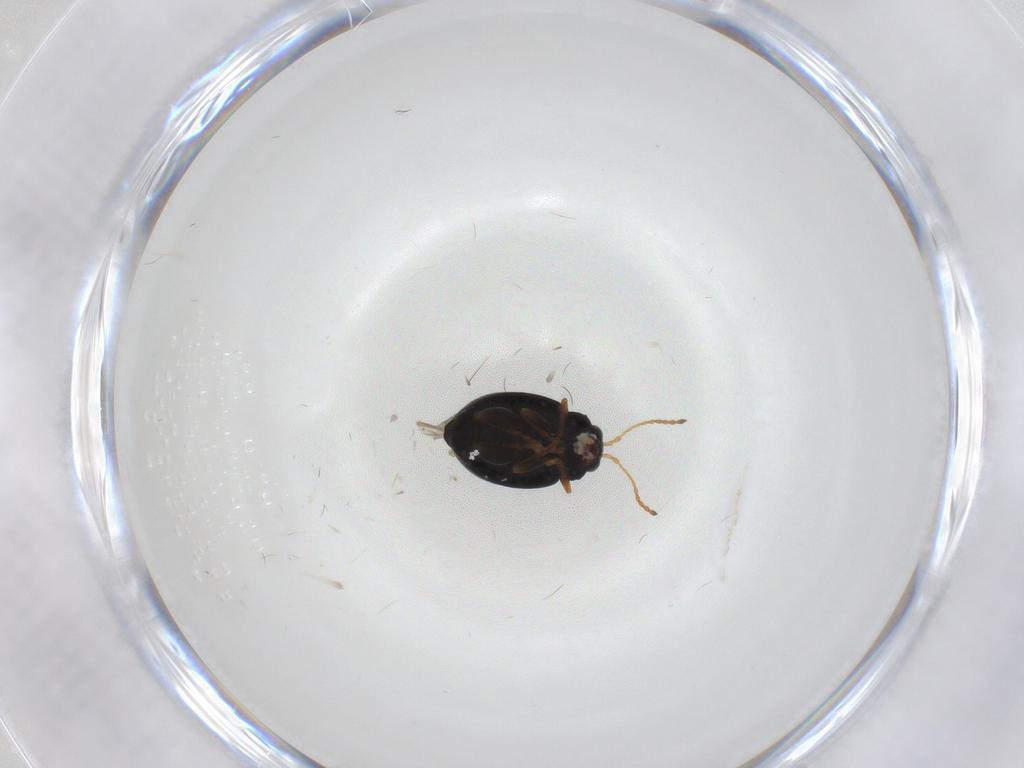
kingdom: Animalia
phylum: Arthropoda
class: Insecta
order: Coleoptera
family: Chrysomelidae
